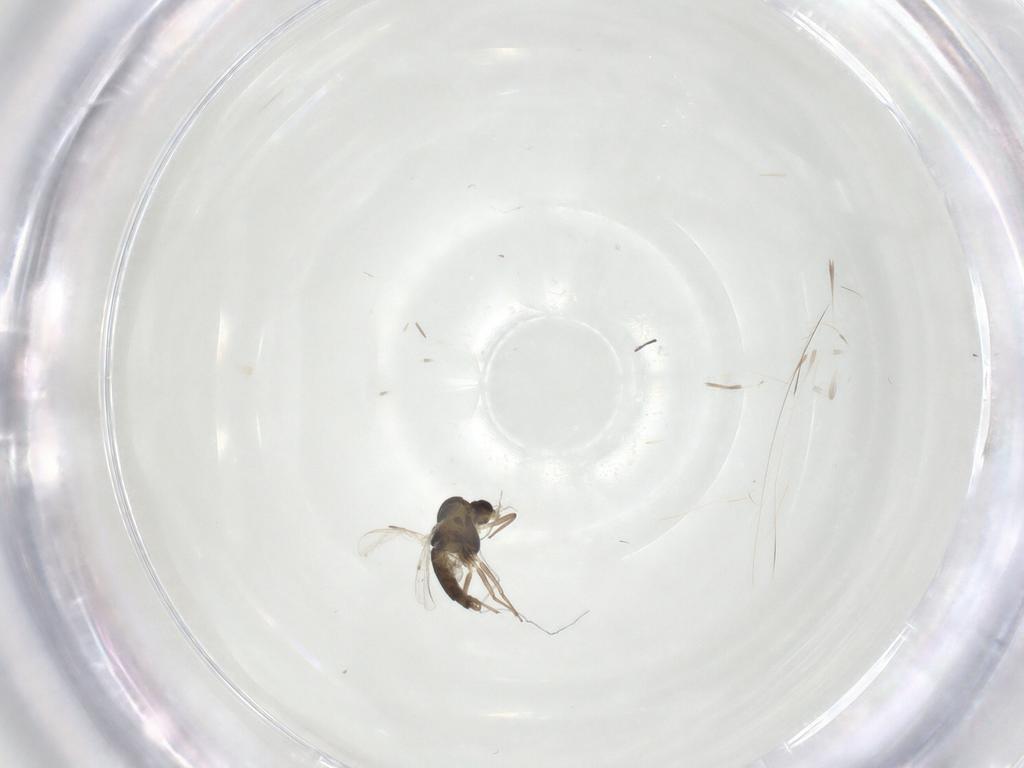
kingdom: Animalia
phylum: Arthropoda
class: Insecta
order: Diptera
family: Chironomidae
